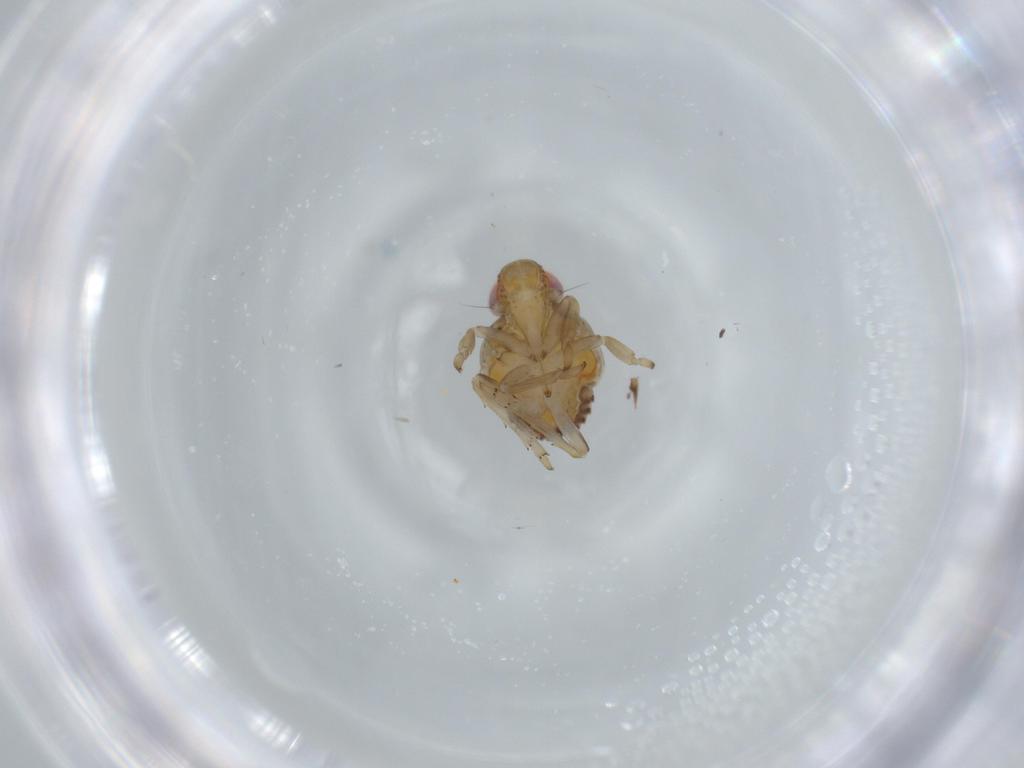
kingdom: Animalia
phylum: Arthropoda
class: Insecta
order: Hemiptera
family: Issidae
